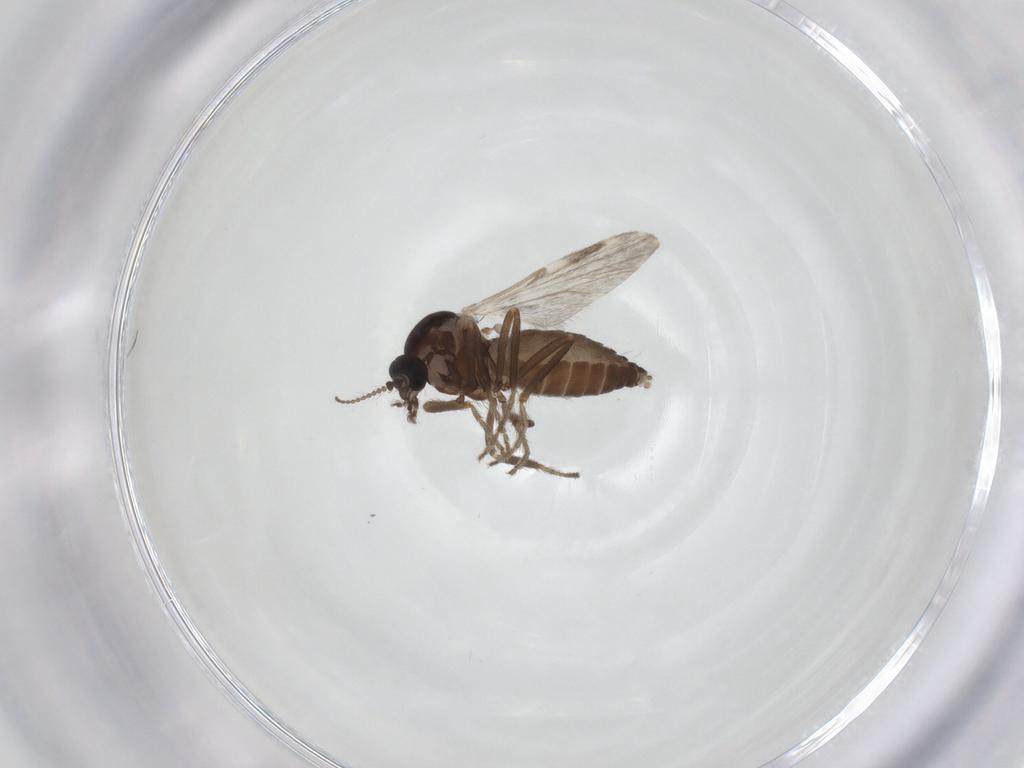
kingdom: Animalia
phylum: Arthropoda
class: Insecta
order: Diptera
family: Ceratopogonidae
